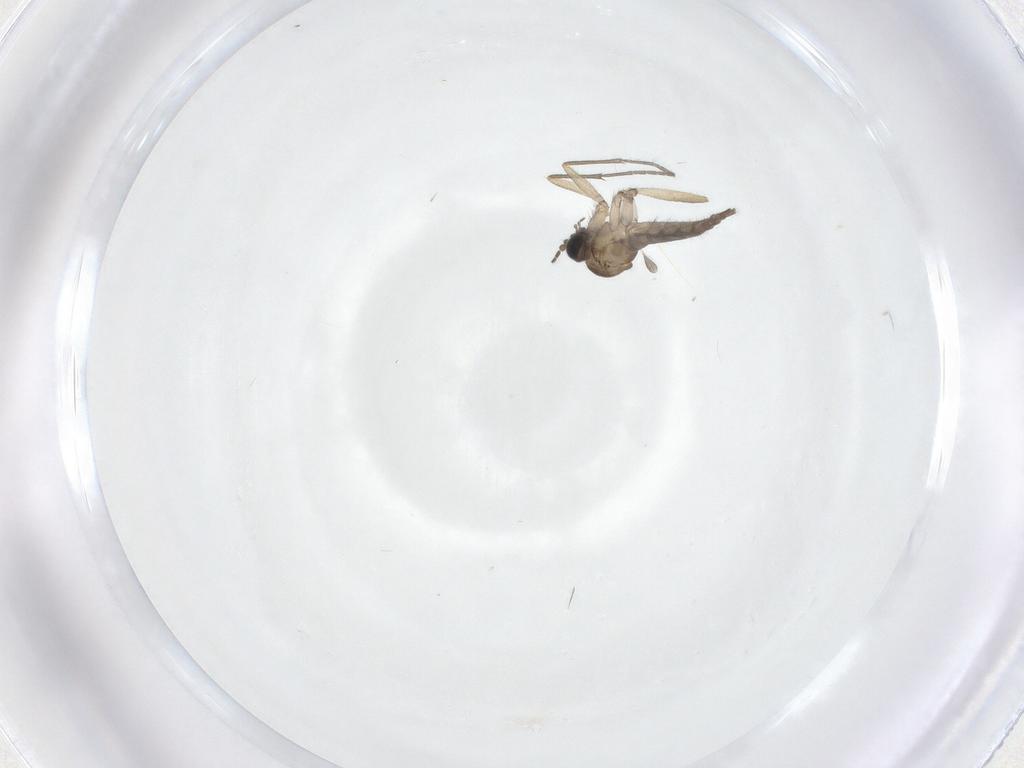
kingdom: Animalia
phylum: Arthropoda
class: Insecta
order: Diptera
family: Sciaridae
